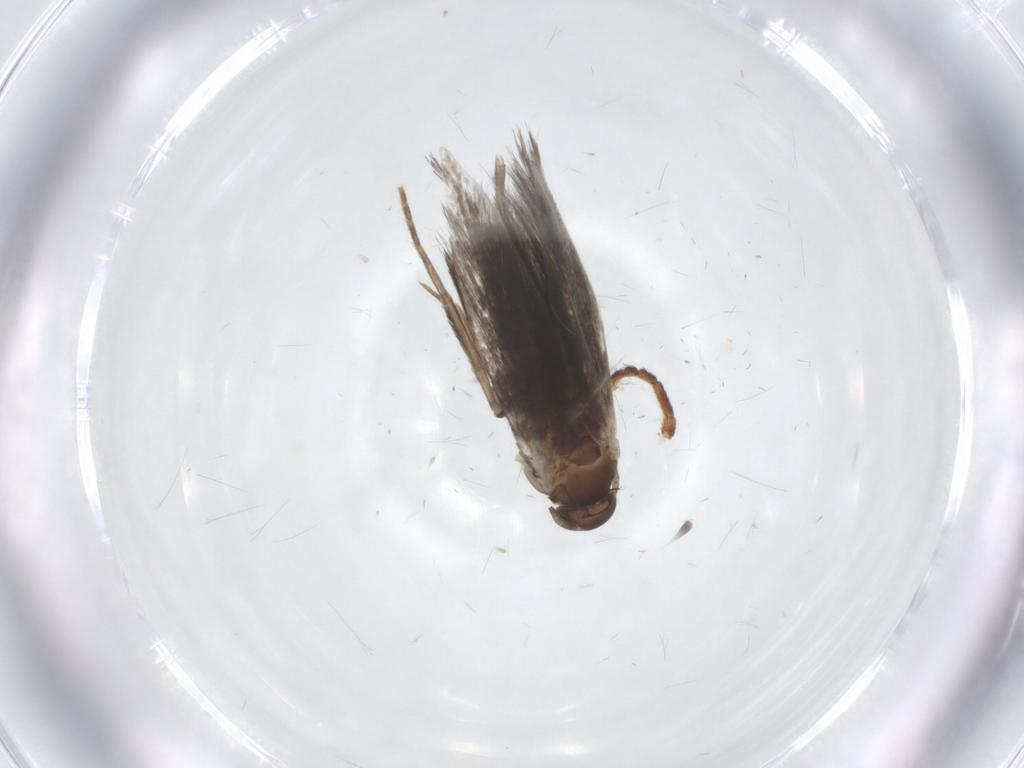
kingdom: Animalia
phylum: Arthropoda
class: Insecta
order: Lepidoptera
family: Elachistidae
